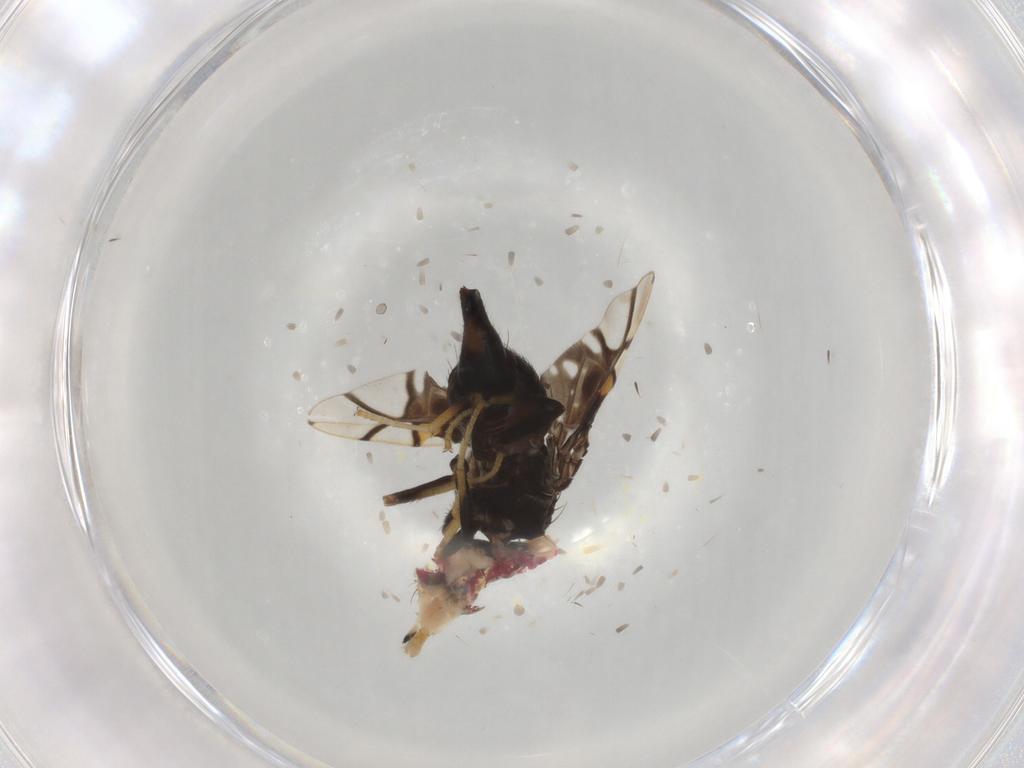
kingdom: Animalia
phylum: Arthropoda
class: Insecta
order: Diptera
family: Tephritidae
